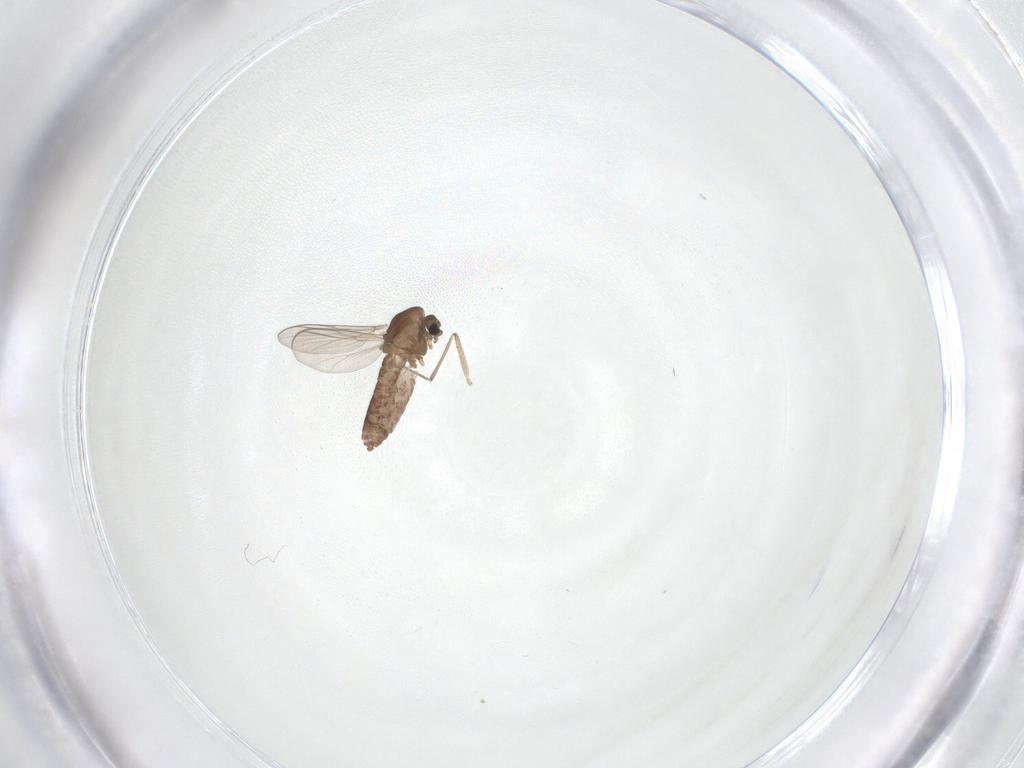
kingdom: Animalia
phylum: Arthropoda
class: Insecta
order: Diptera
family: Chironomidae
